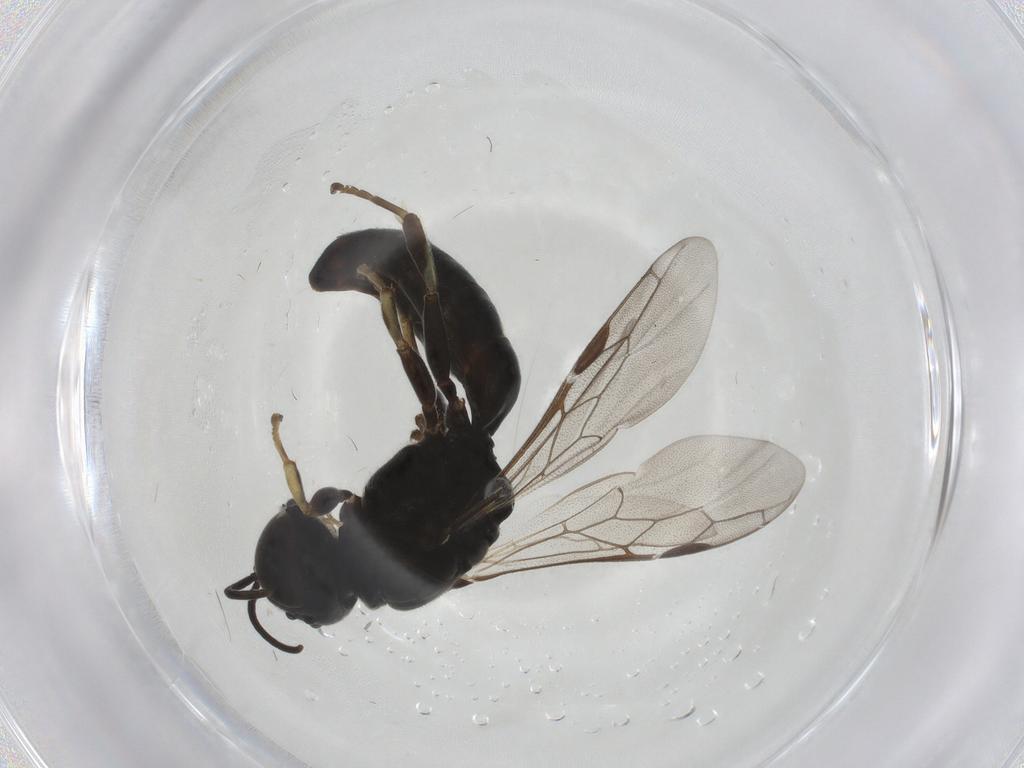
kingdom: Animalia
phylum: Arthropoda
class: Insecta
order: Hymenoptera
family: Crabronidae
